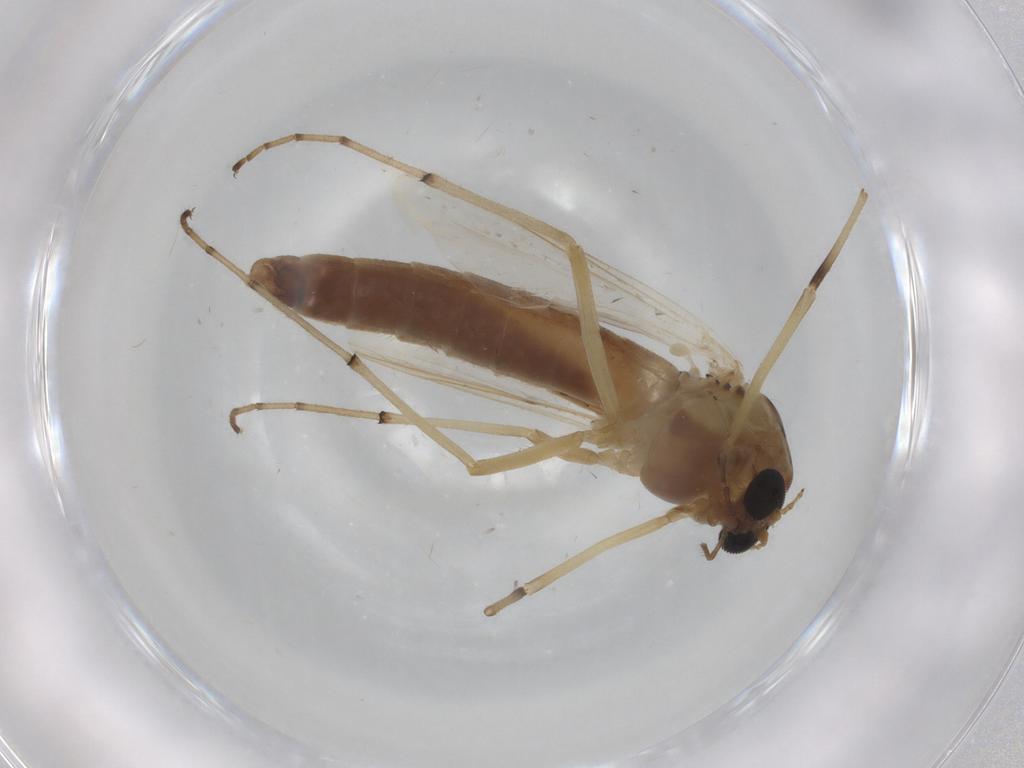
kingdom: Animalia
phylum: Arthropoda
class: Insecta
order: Diptera
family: Chironomidae
